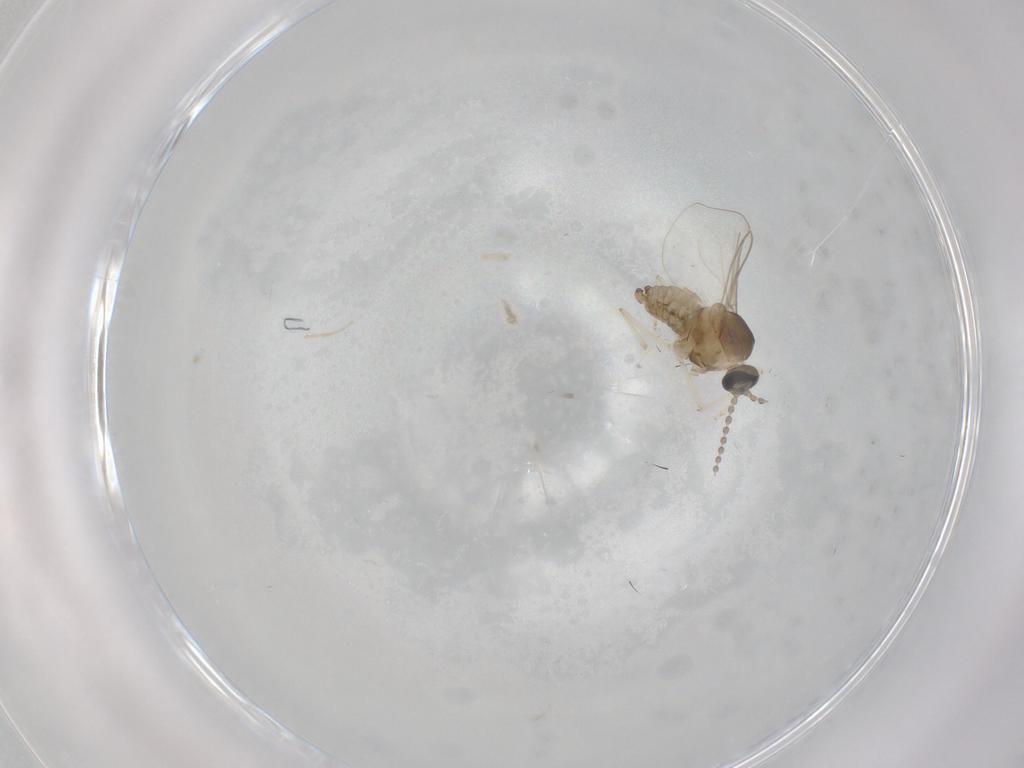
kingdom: Animalia
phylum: Arthropoda
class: Insecta
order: Diptera
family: Cecidomyiidae
